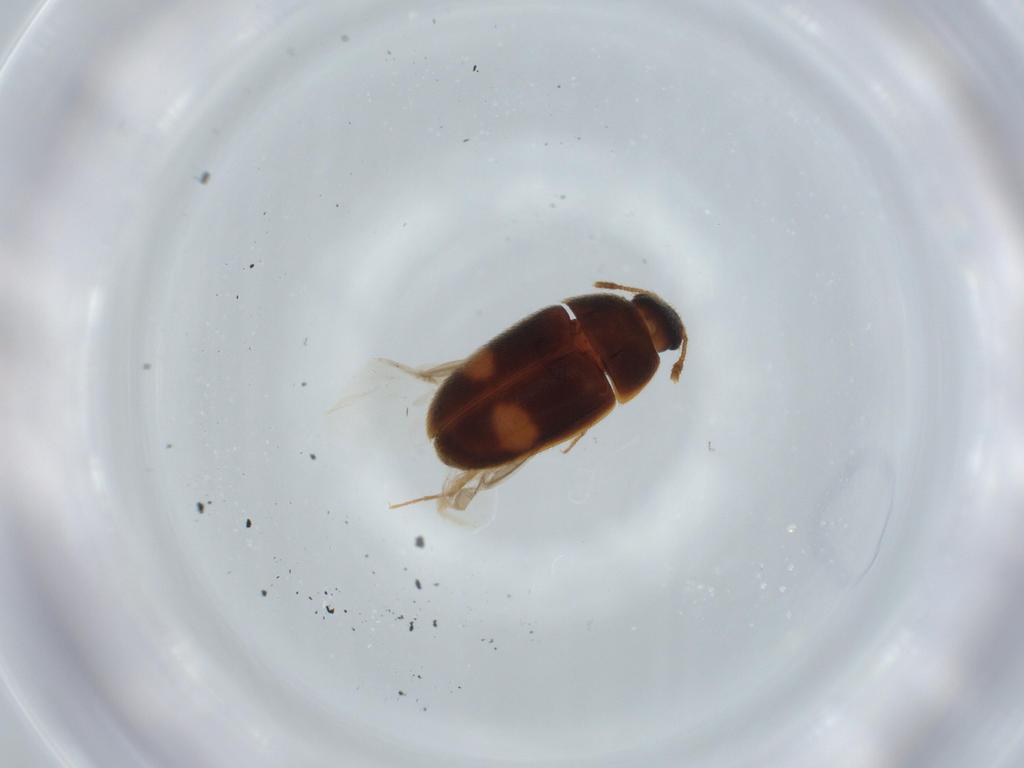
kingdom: Animalia
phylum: Arthropoda
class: Insecta
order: Coleoptera
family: Mycetophagidae
